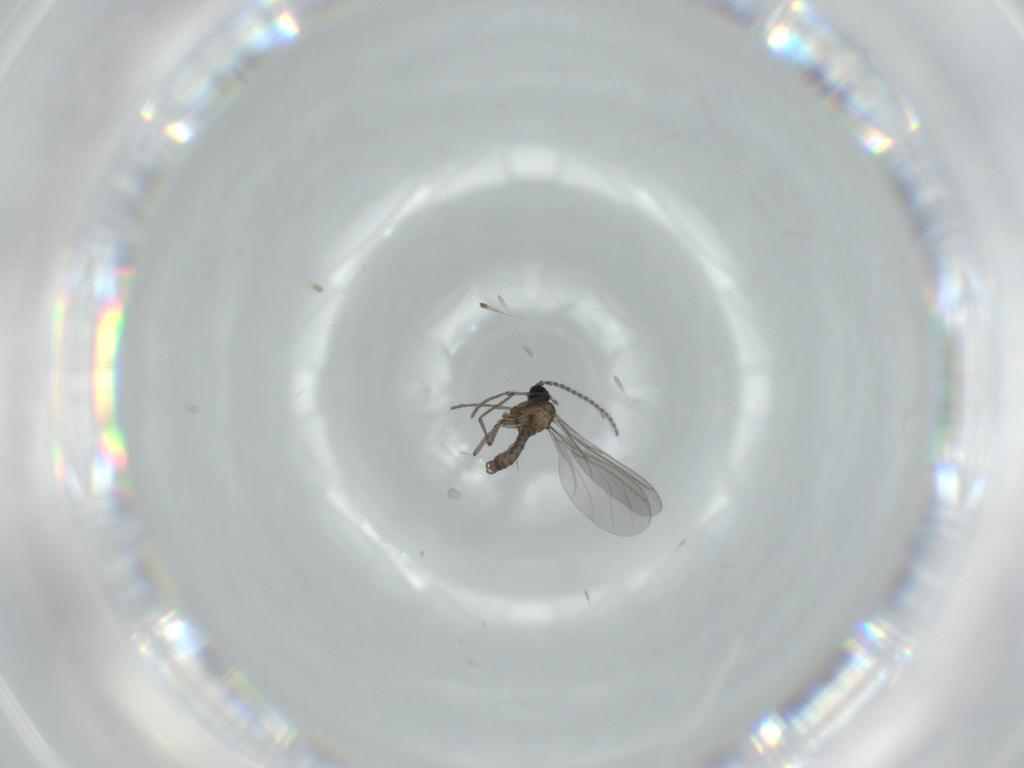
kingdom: Animalia
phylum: Arthropoda
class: Insecta
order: Diptera
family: Sciaridae
